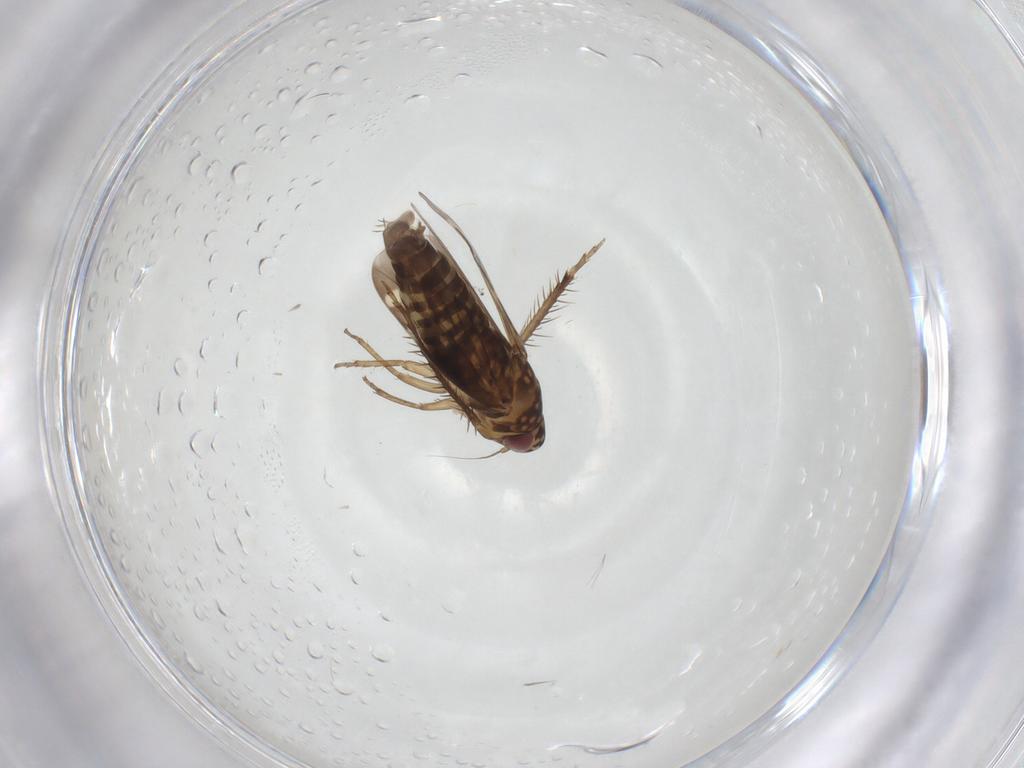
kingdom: Animalia
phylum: Arthropoda
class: Insecta
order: Hemiptera
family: Cicadellidae
